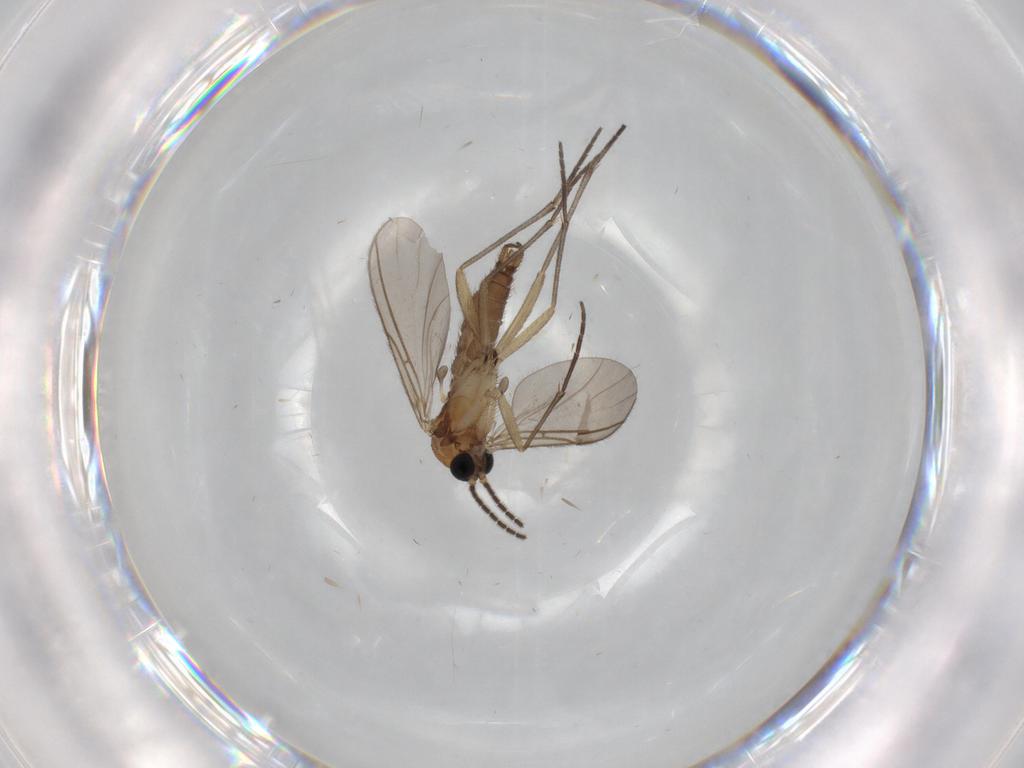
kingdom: Animalia
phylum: Arthropoda
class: Insecta
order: Diptera
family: Sciaridae
